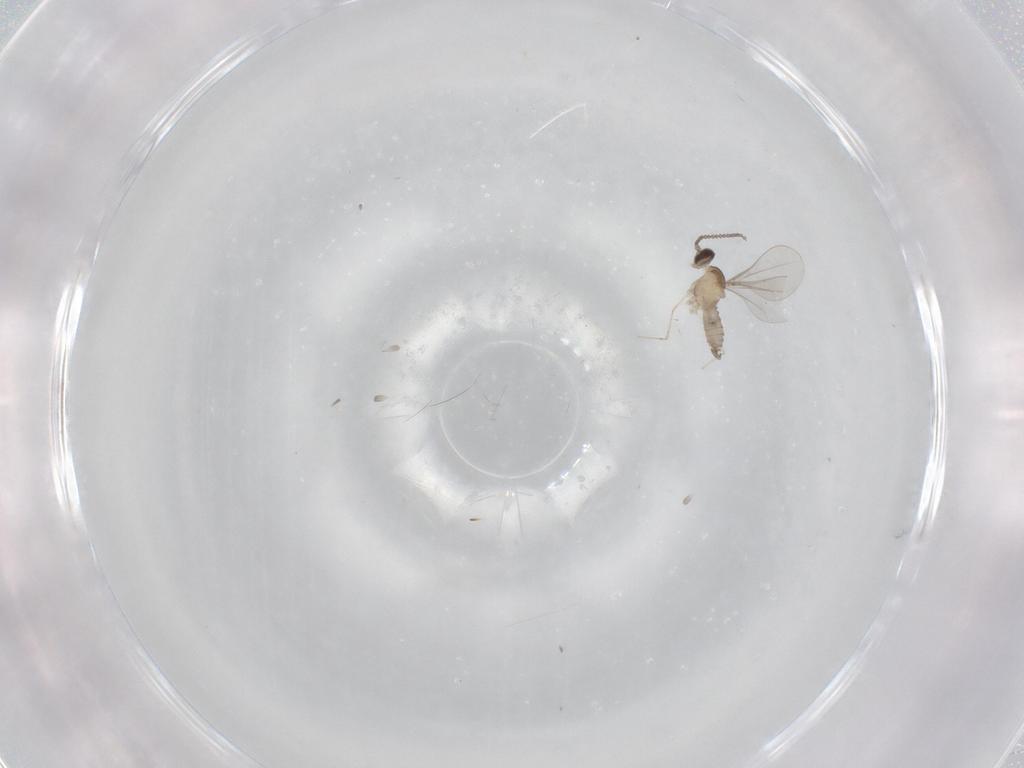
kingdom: Animalia
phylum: Arthropoda
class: Insecta
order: Diptera
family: Cecidomyiidae
